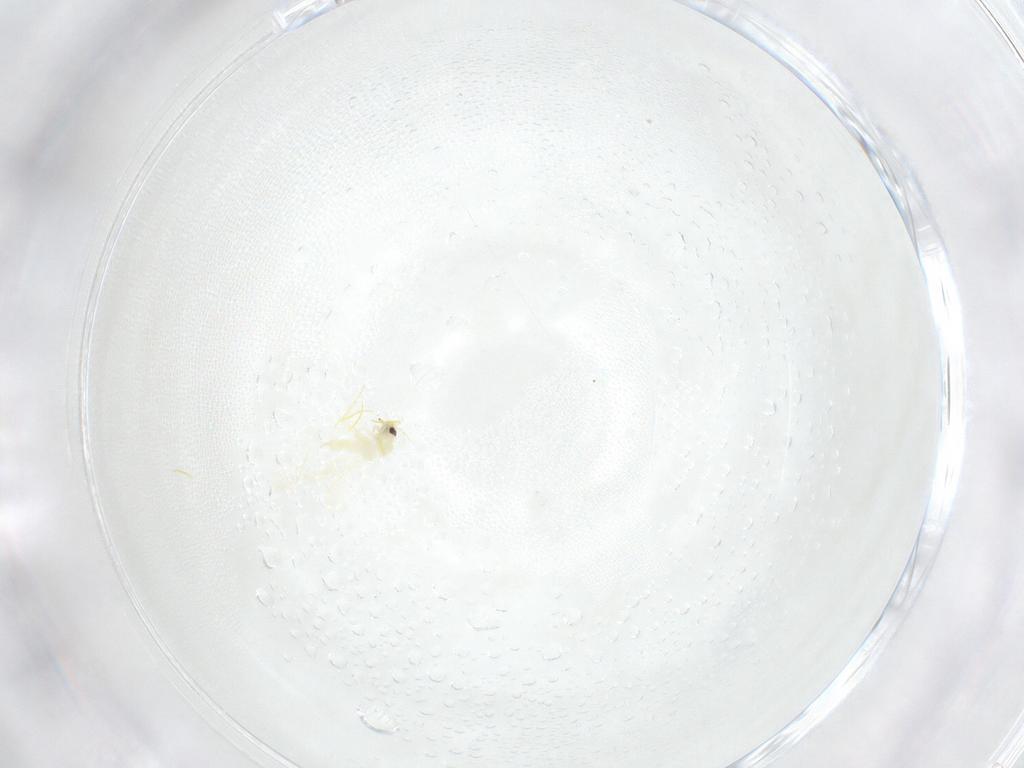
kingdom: Animalia
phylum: Arthropoda
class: Insecta
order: Hemiptera
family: Aleyrodidae
